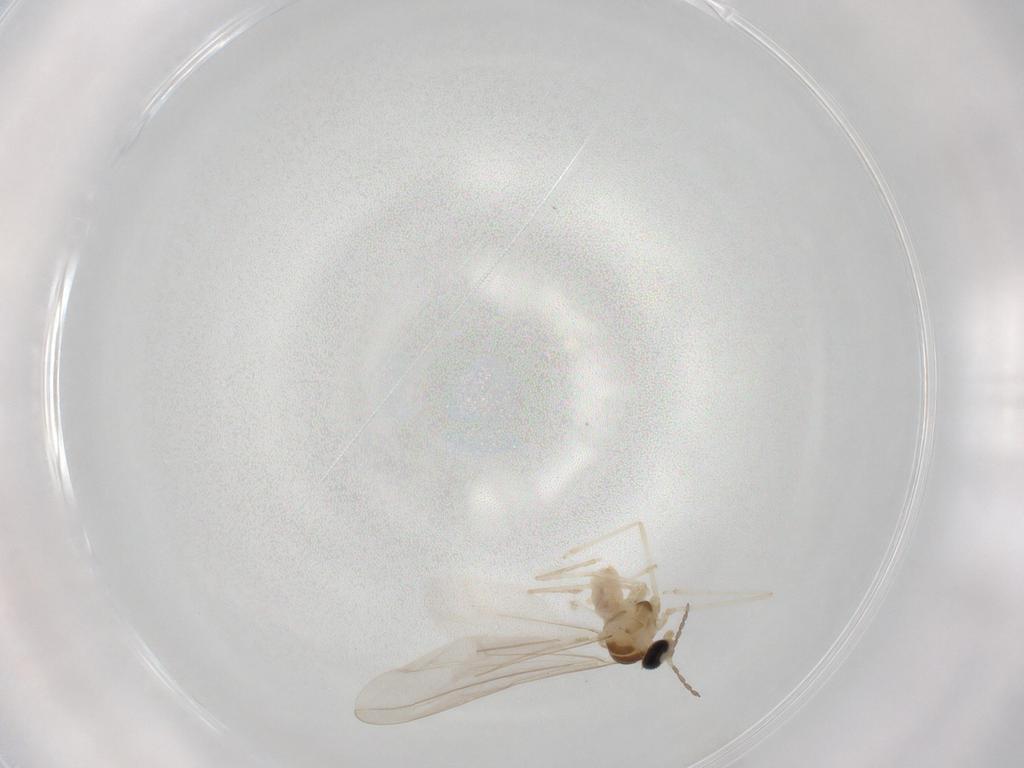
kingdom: Animalia
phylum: Arthropoda
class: Insecta
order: Diptera
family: Cecidomyiidae
